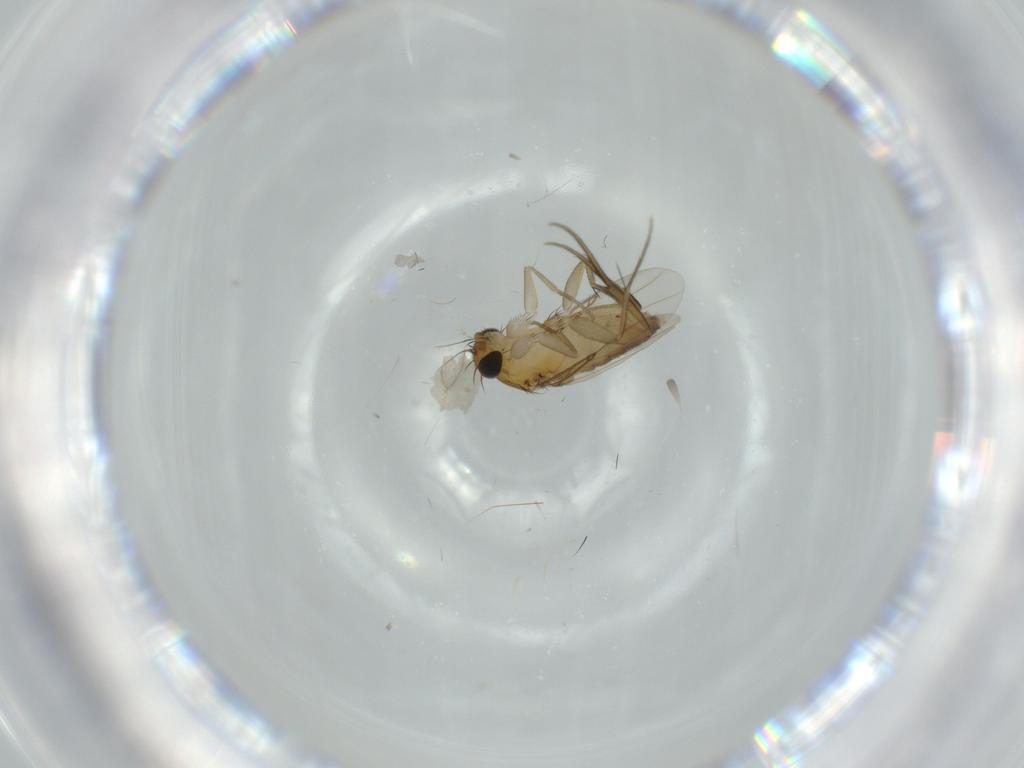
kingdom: Animalia
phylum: Arthropoda
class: Insecta
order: Diptera
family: Phoridae
